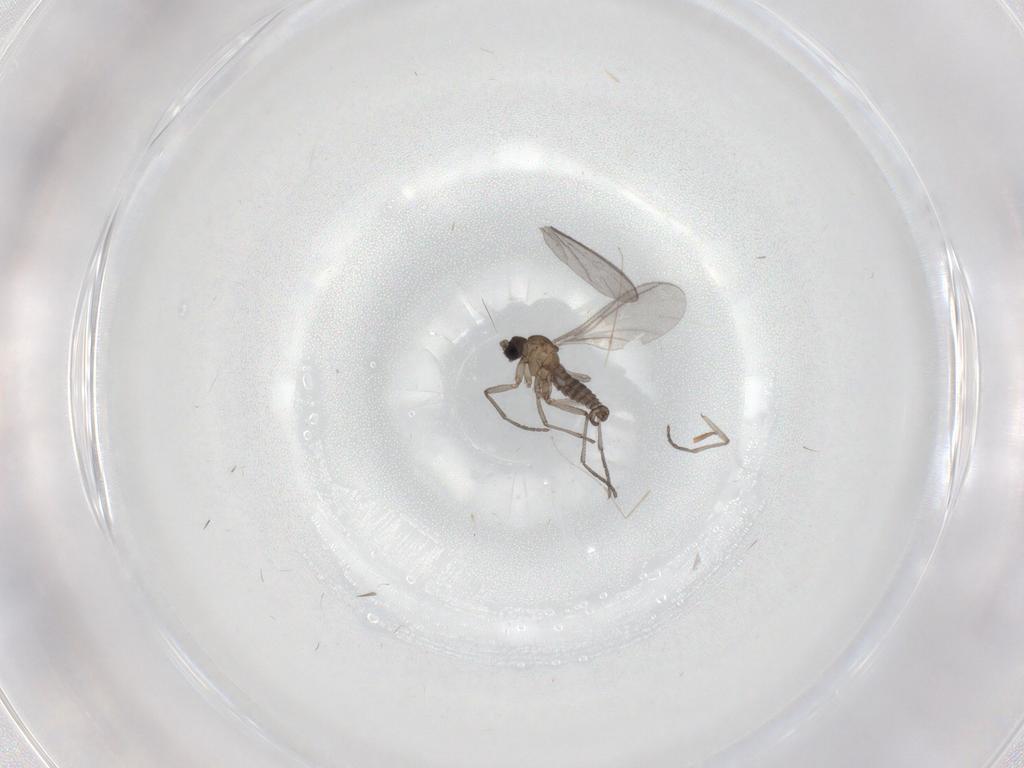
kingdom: Animalia
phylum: Arthropoda
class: Insecta
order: Diptera
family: Sciaridae
